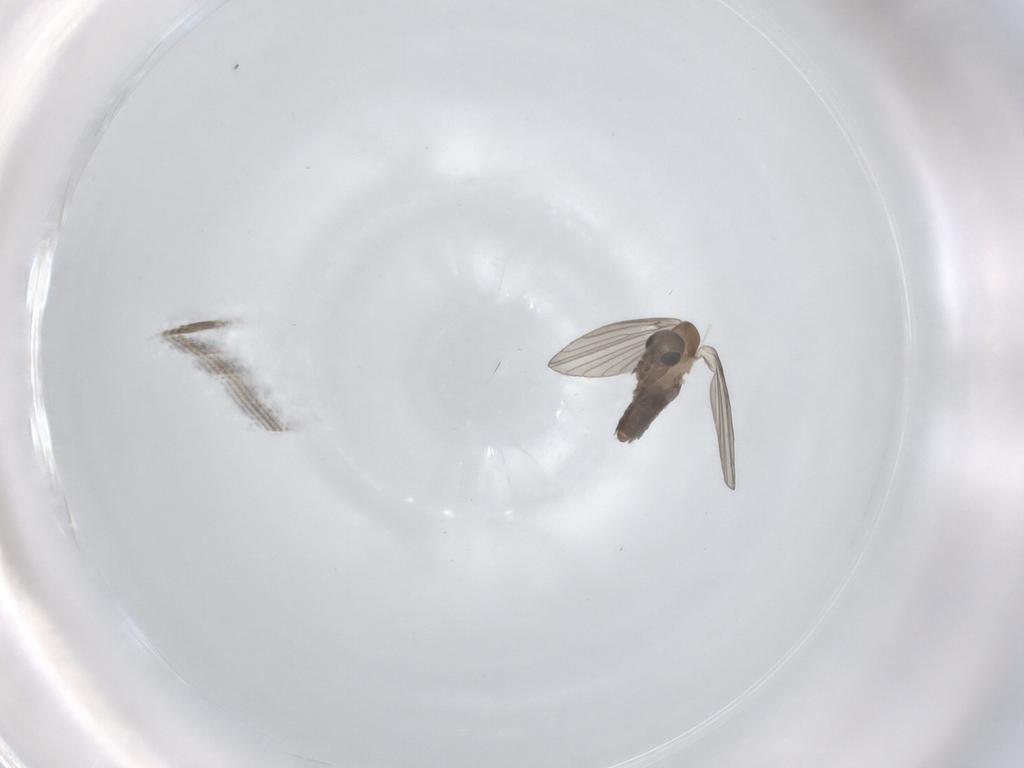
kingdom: Animalia
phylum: Arthropoda
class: Insecta
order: Diptera
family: Psychodidae
